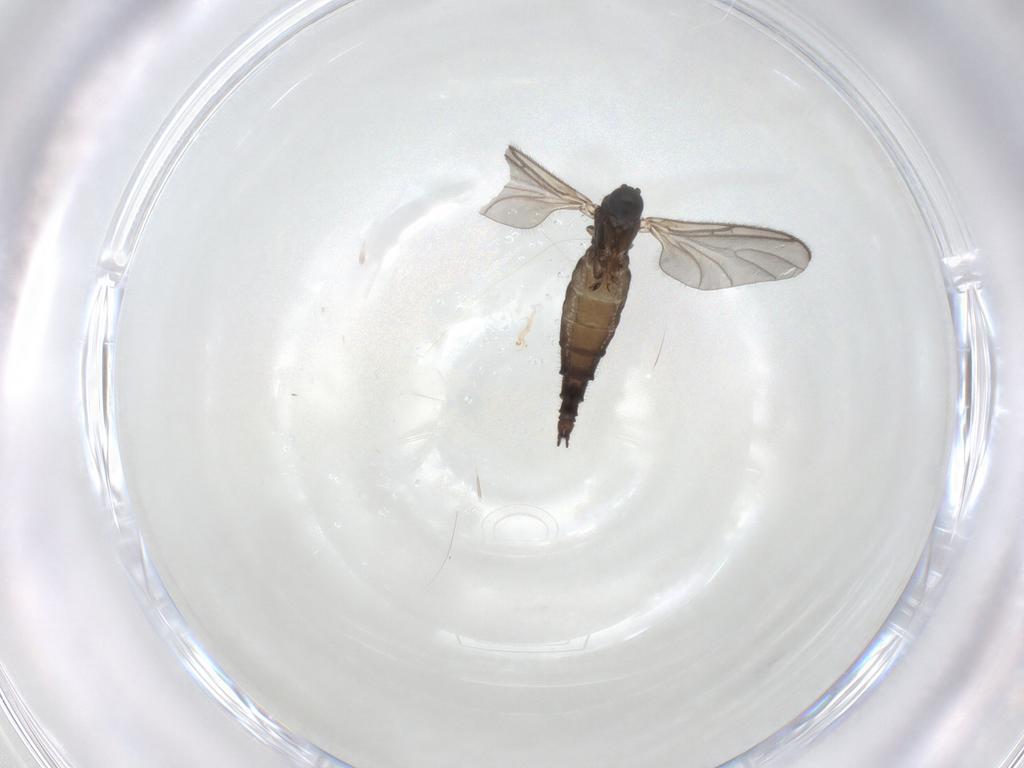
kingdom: Animalia
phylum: Arthropoda
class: Insecta
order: Diptera
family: Sciaridae
